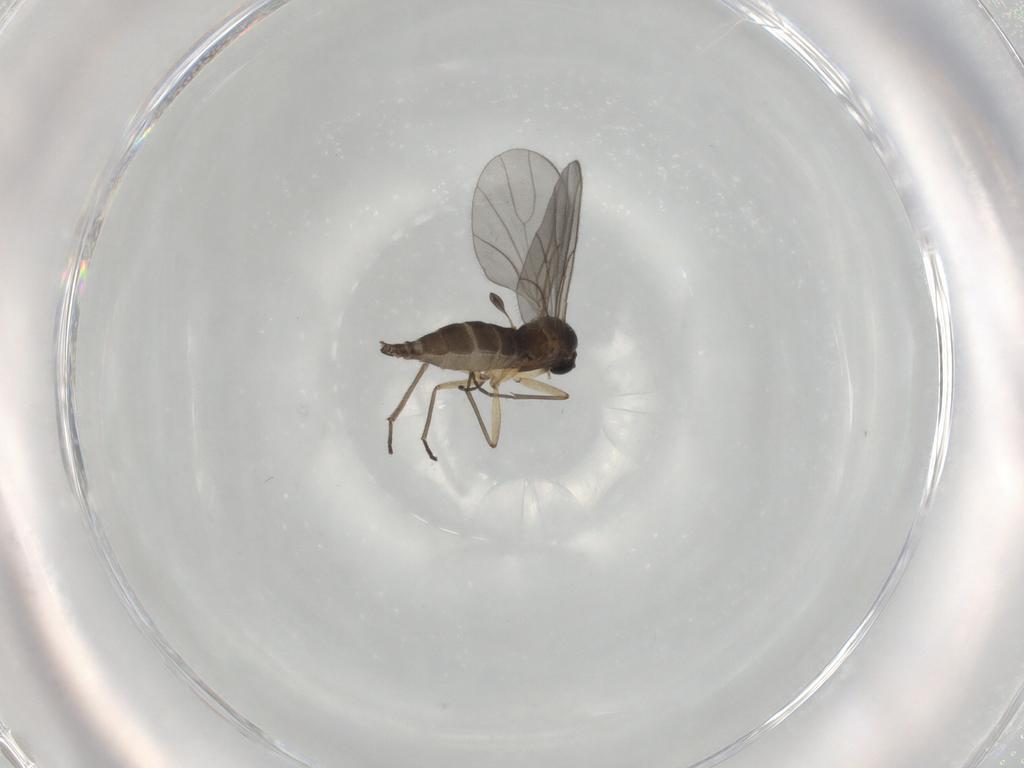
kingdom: Animalia
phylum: Arthropoda
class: Insecta
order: Diptera
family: Sciaridae
